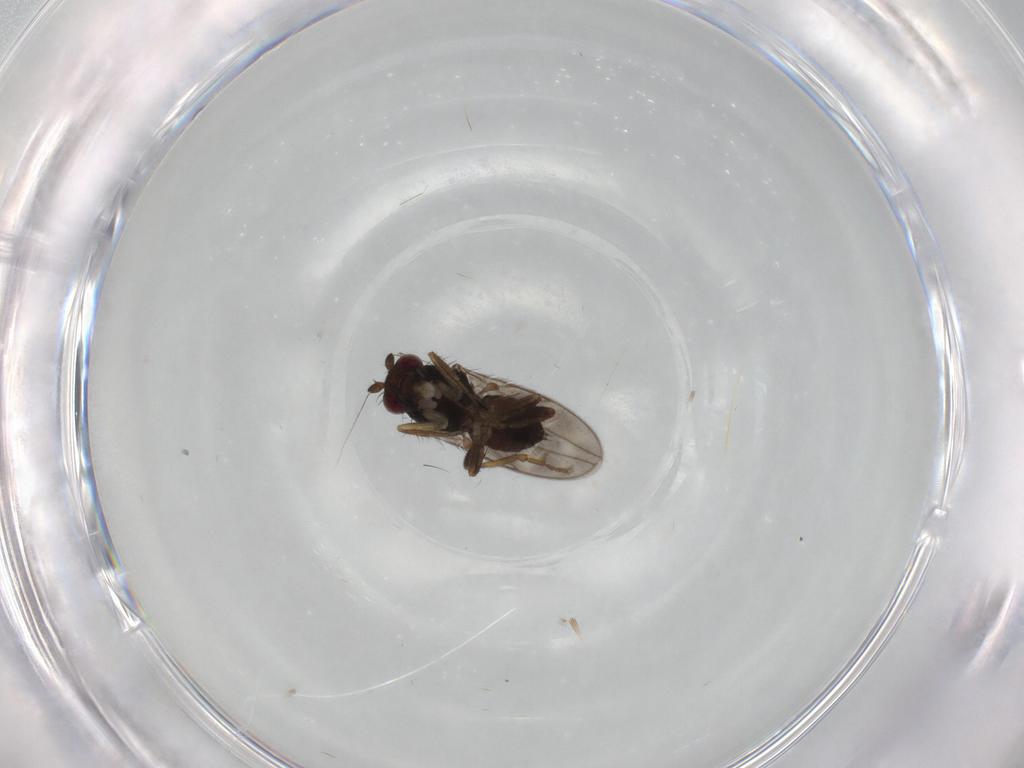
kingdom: Animalia
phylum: Arthropoda
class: Insecta
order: Diptera
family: Sphaeroceridae
